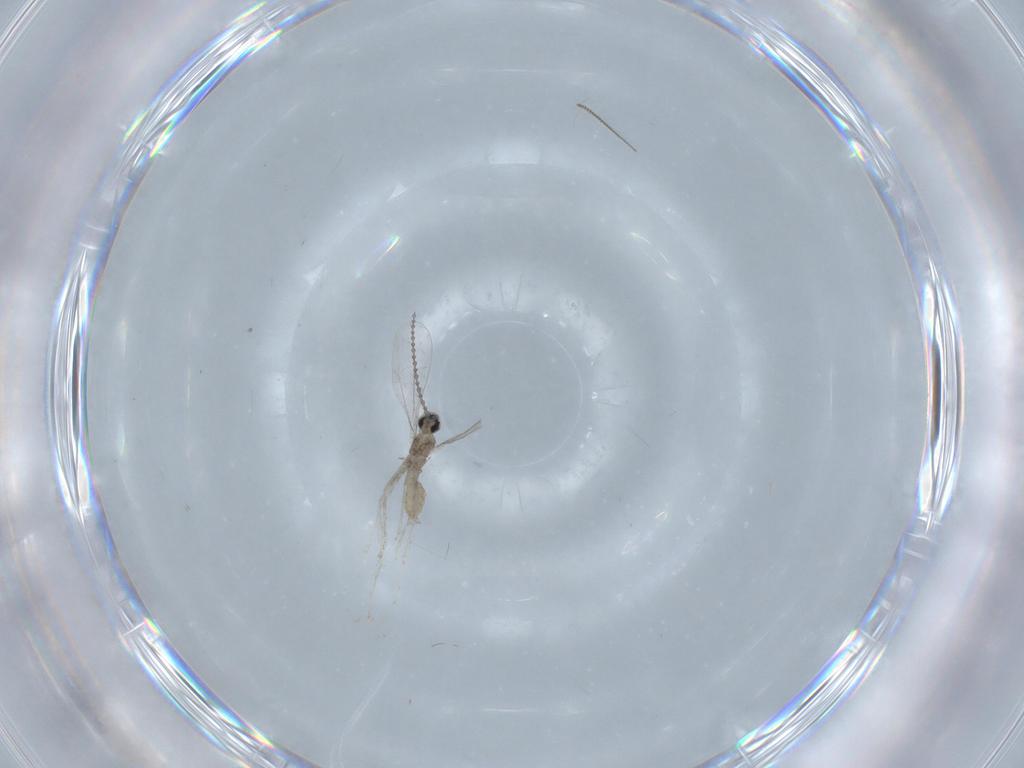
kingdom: Animalia
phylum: Arthropoda
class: Insecta
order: Diptera
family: Cecidomyiidae
